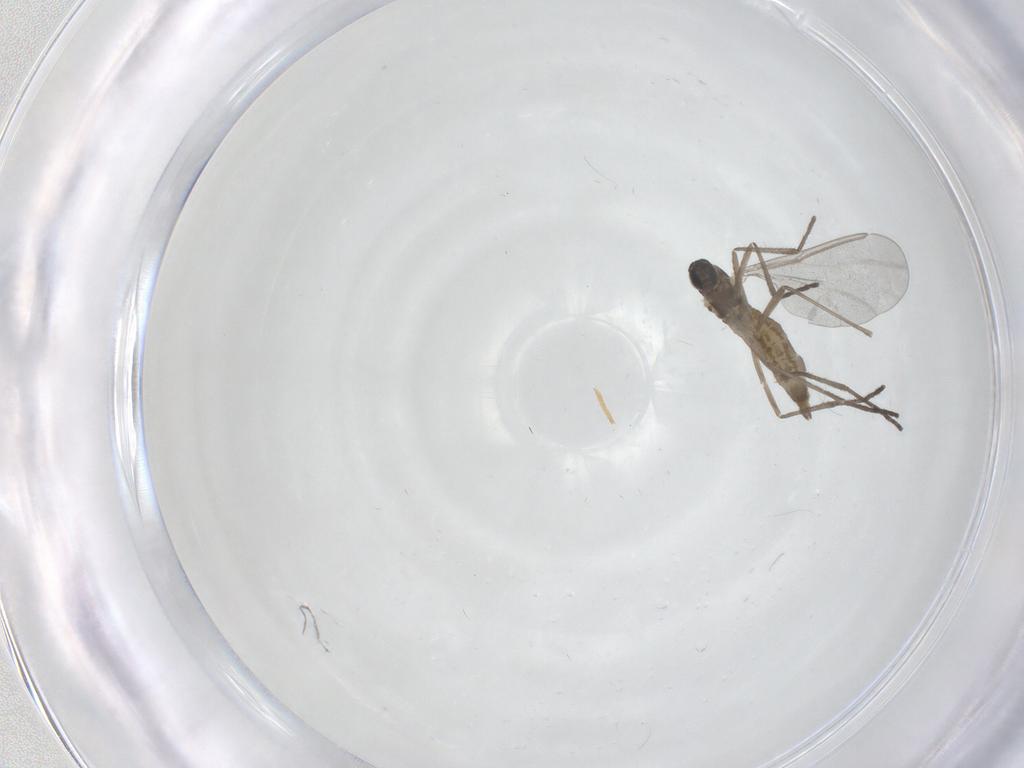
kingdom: Animalia
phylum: Arthropoda
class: Insecta
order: Diptera
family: Cecidomyiidae
